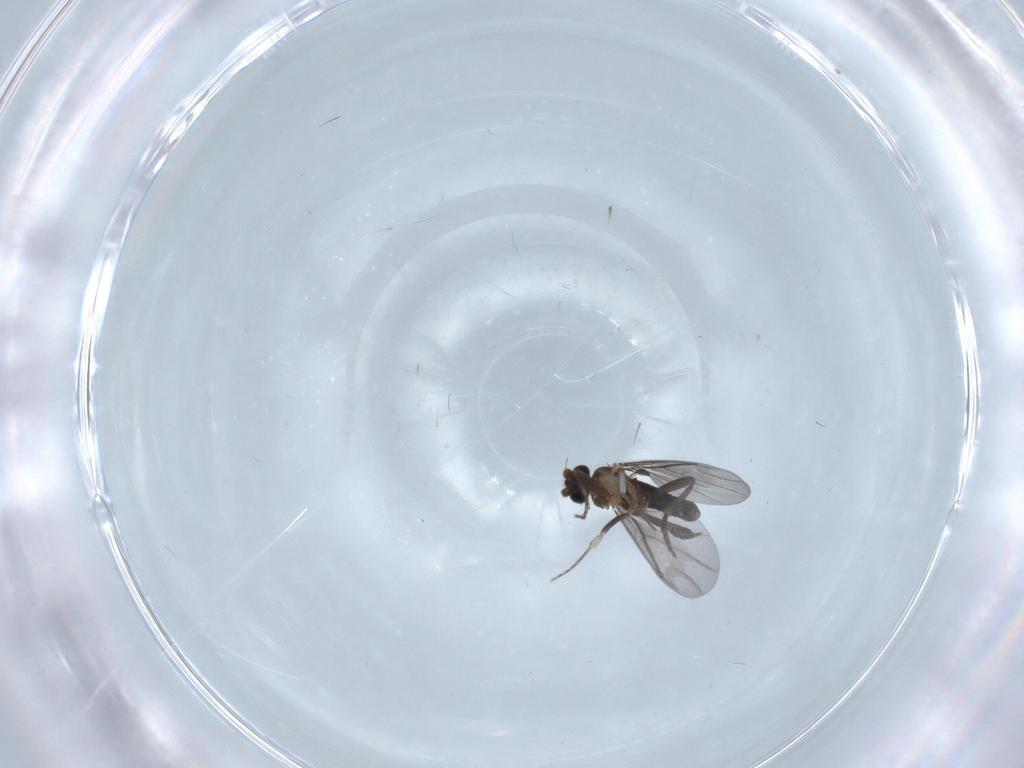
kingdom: Animalia
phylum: Arthropoda
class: Insecta
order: Diptera
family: Phoridae
